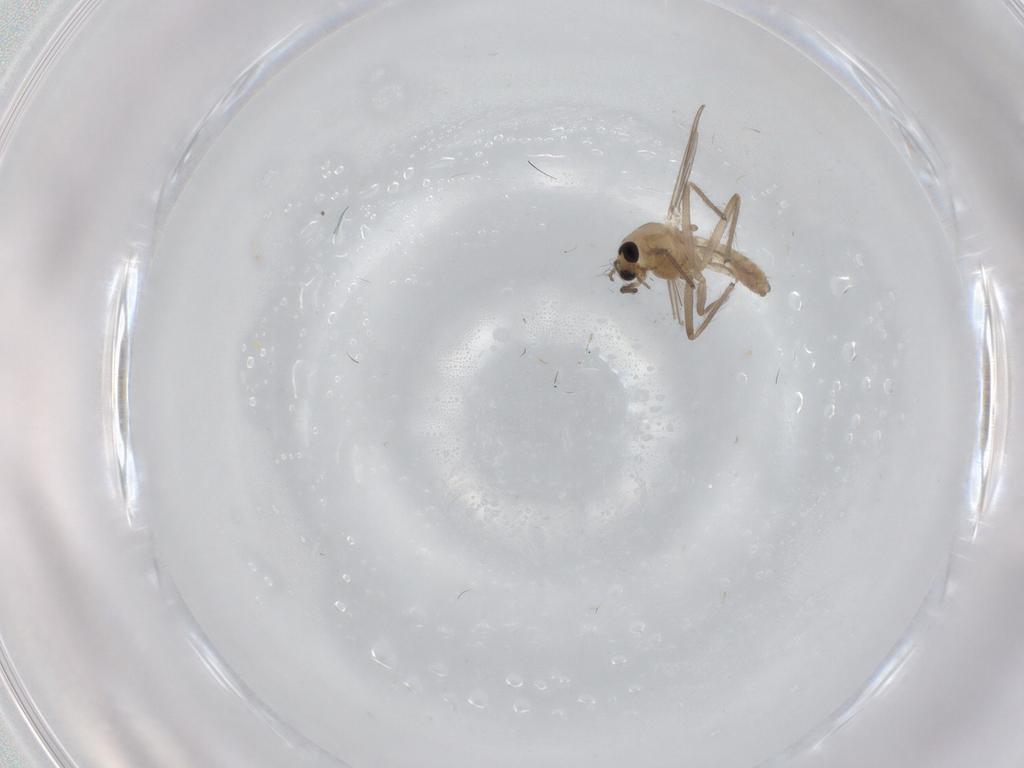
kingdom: Animalia
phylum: Arthropoda
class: Insecta
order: Diptera
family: Chironomidae
